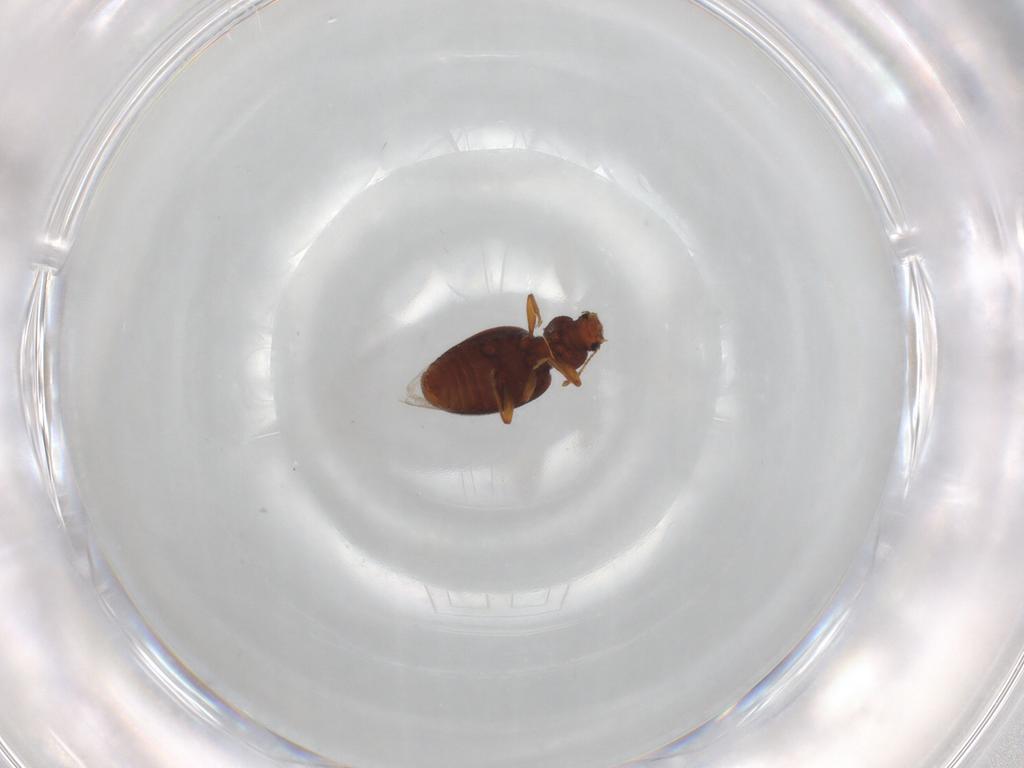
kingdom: Animalia
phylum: Arthropoda
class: Insecta
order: Coleoptera
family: Latridiidae
